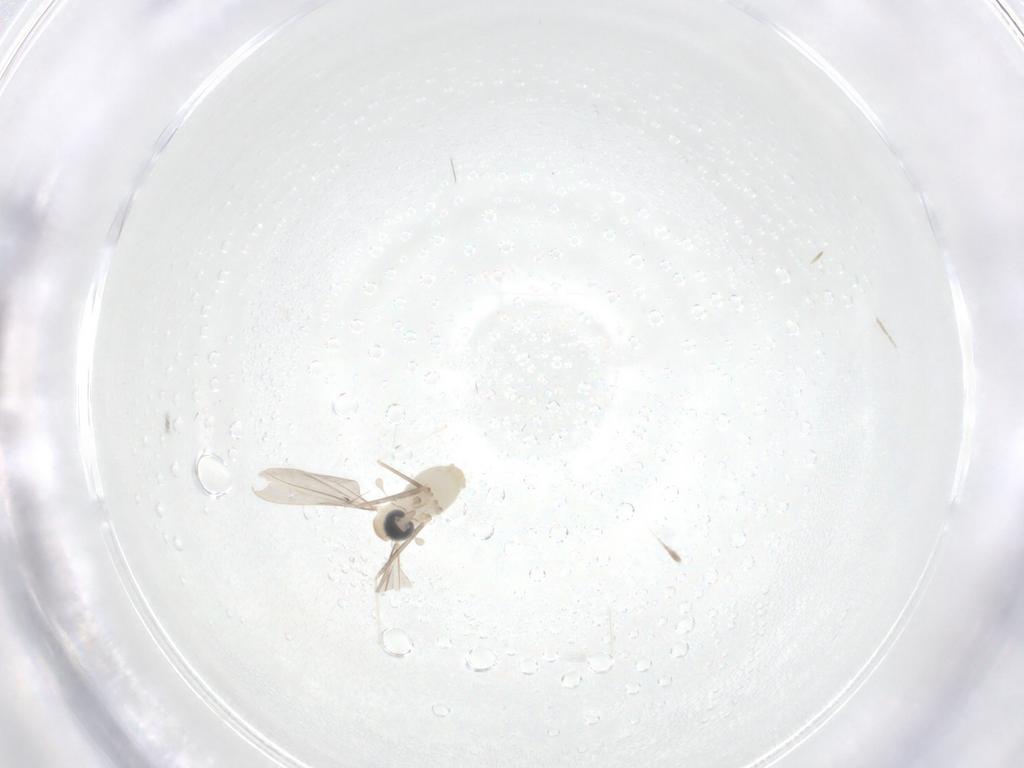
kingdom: Animalia
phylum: Arthropoda
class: Insecta
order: Diptera
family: Cecidomyiidae
